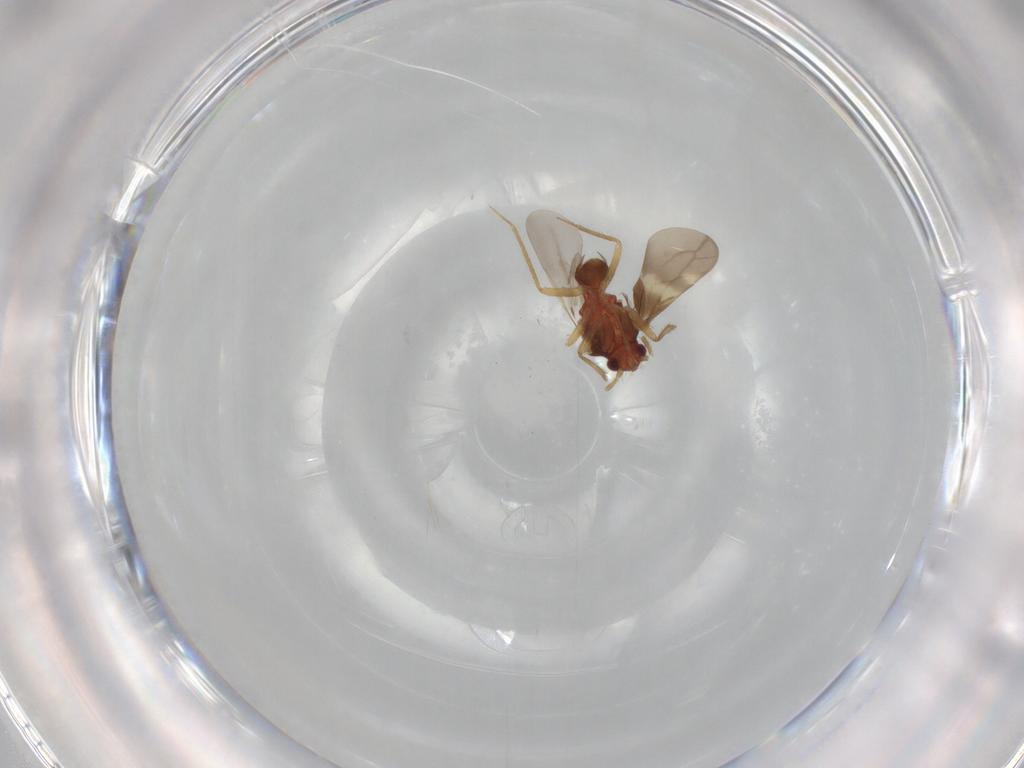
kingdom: Animalia
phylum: Arthropoda
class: Insecta
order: Hemiptera
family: Ceratocombidae
